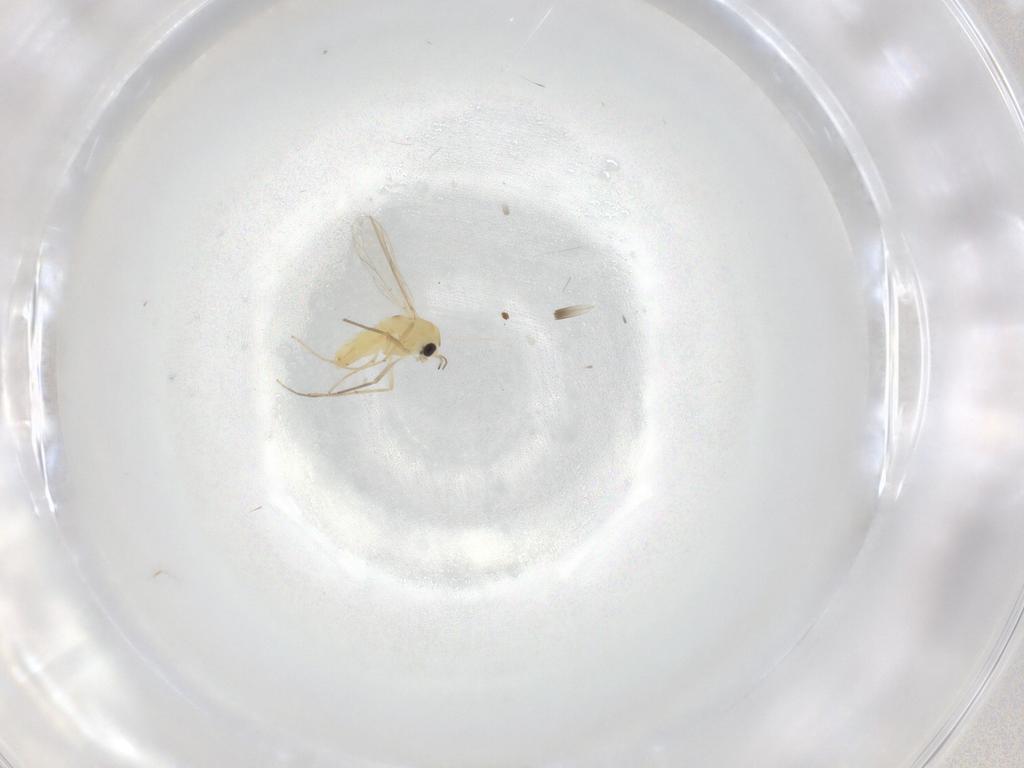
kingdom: Animalia
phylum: Arthropoda
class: Insecta
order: Diptera
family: Chironomidae
